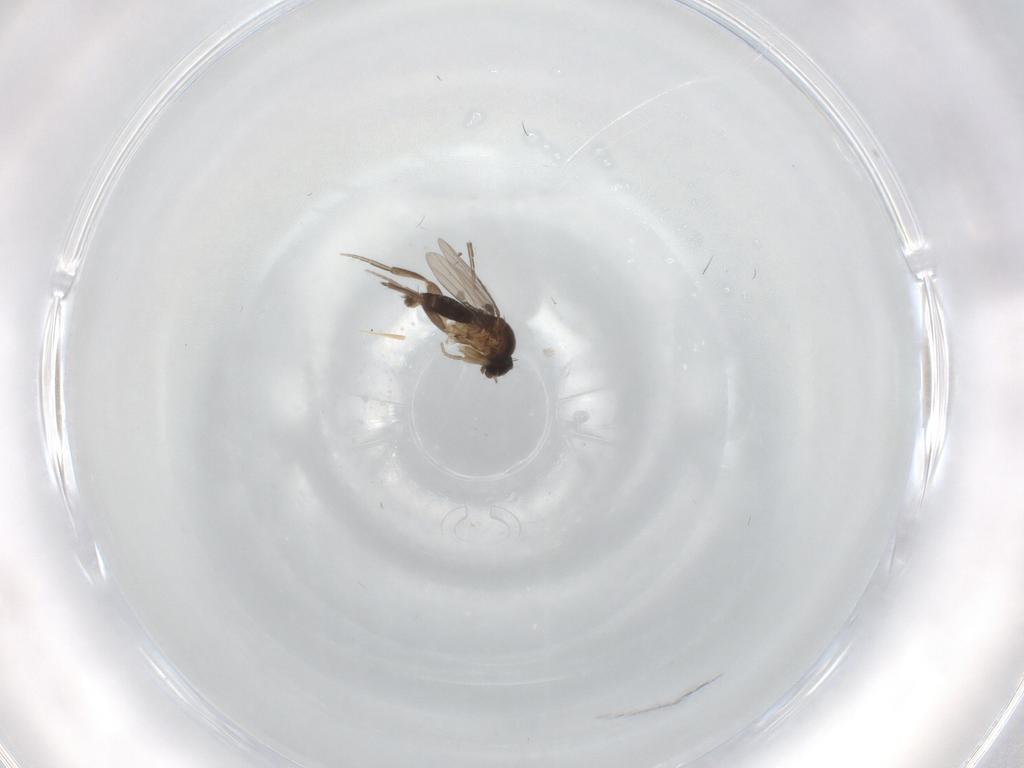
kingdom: Animalia
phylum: Arthropoda
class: Insecta
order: Diptera
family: Phoridae
